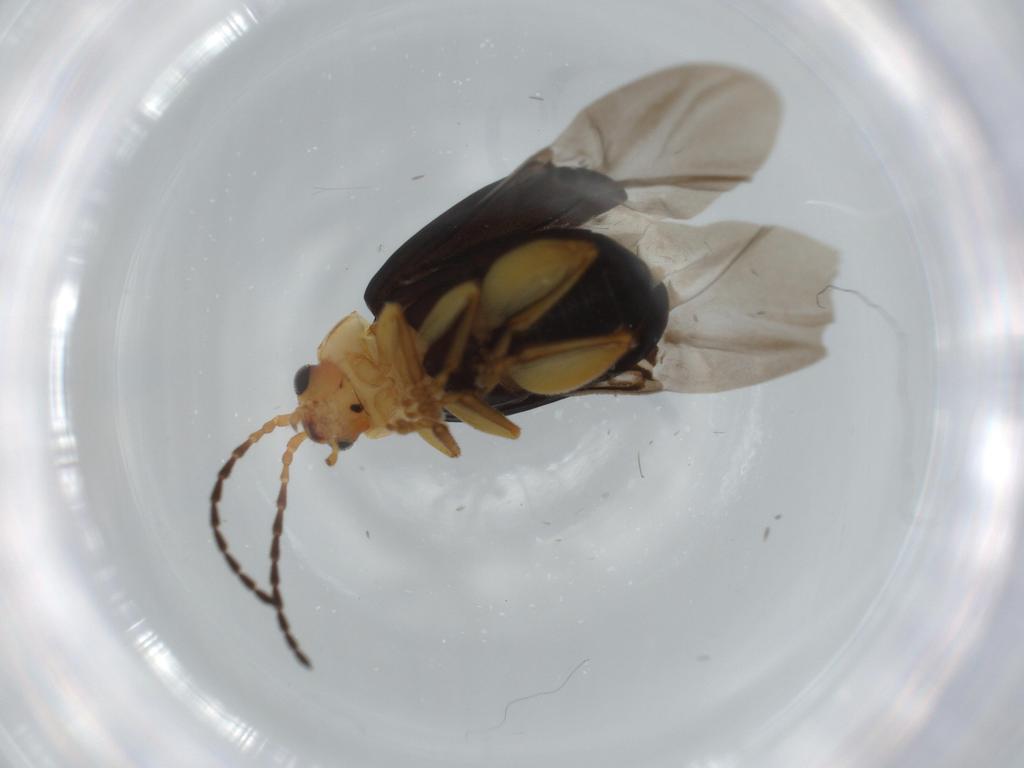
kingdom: Animalia
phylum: Arthropoda
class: Insecta
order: Coleoptera
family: Chrysomelidae
